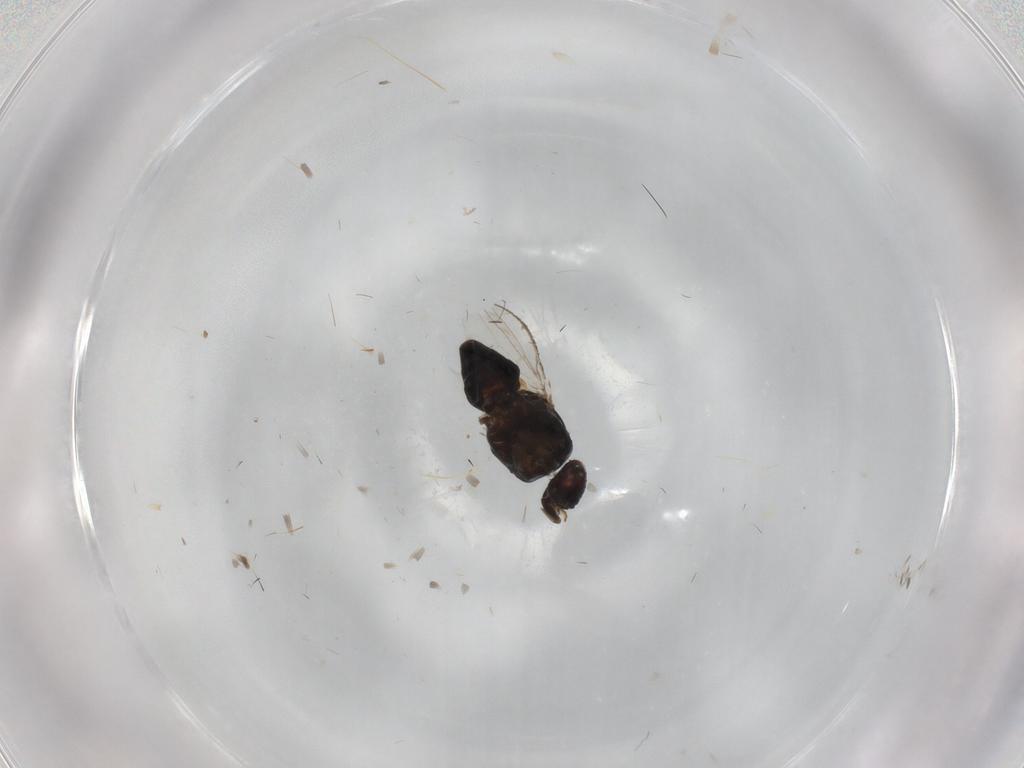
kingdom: Animalia
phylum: Arthropoda
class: Insecta
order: Diptera
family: Milichiidae
